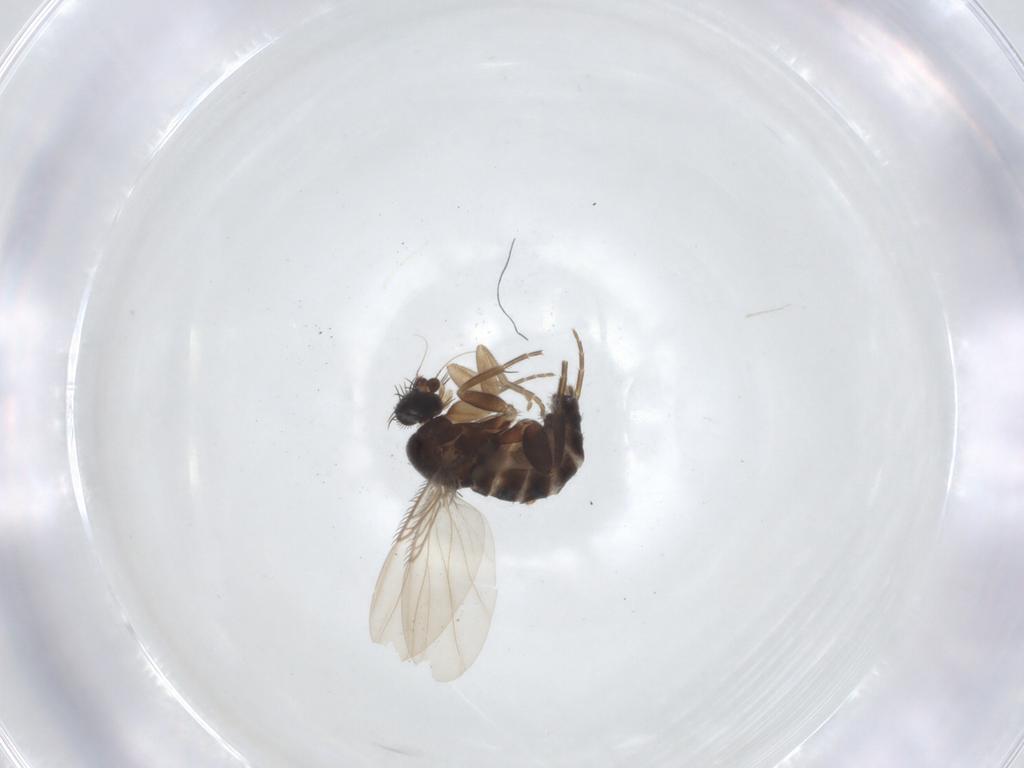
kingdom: Animalia
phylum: Arthropoda
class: Insecta
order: Diptera
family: Phoridae
